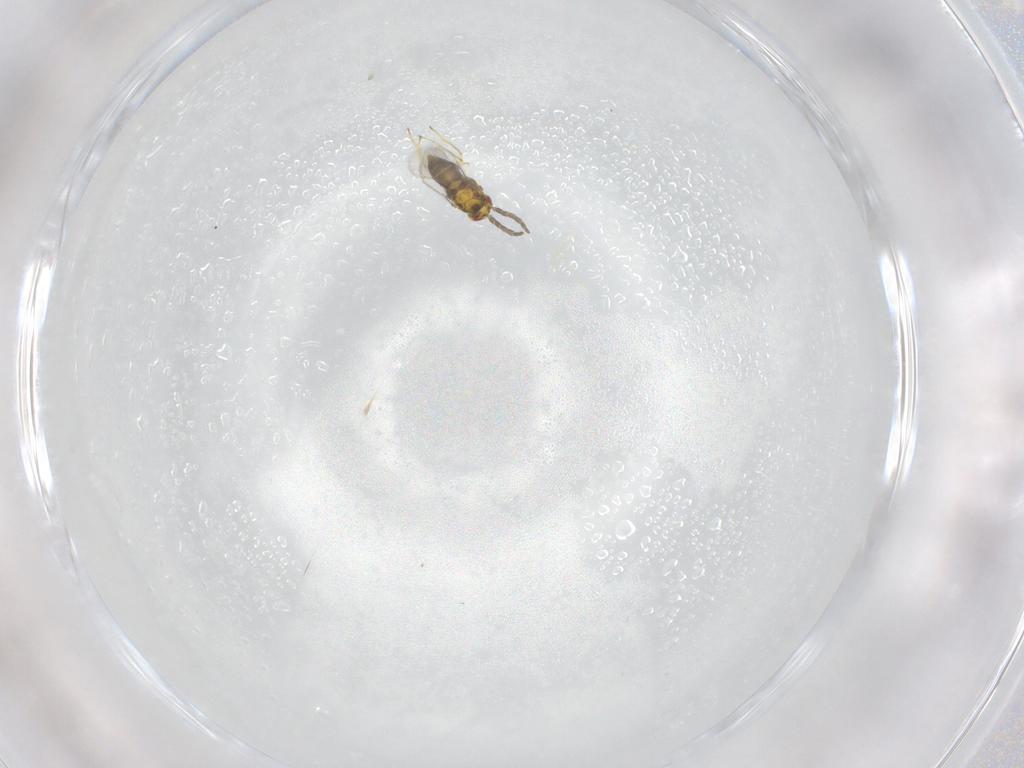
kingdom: Animalia
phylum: Arthropoda
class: Insecta
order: Hymenoptera
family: Aphelinidae
